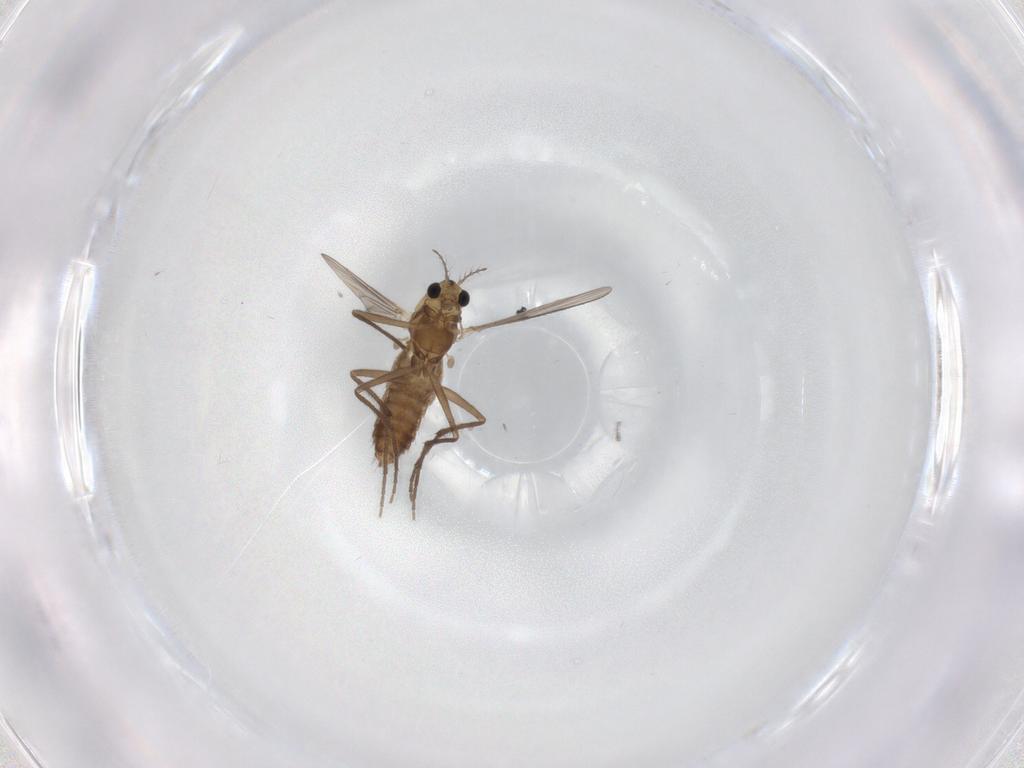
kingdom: Animalia
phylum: Arthropoda
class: Insecta
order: Diptera
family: Chironomidae
